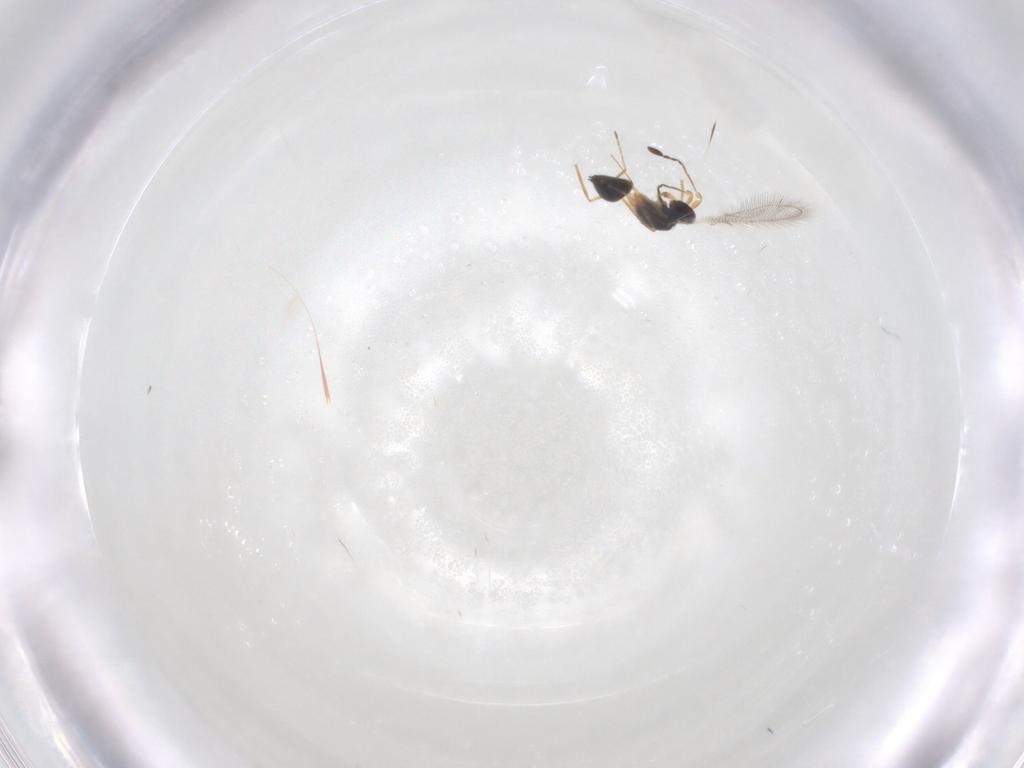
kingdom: Animalia
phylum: Arthropoda
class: Insecta
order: Hymenoptera
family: Mymaridae
